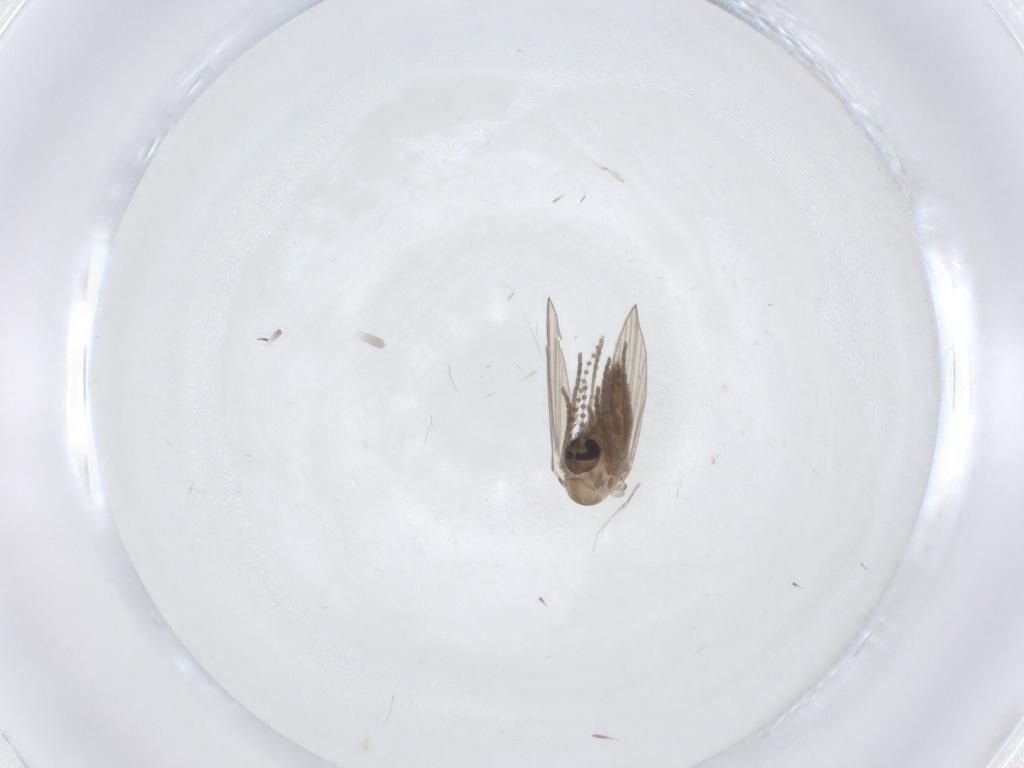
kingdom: Animalia
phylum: Arthropoda
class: Insecta
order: Diptera
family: Psychodidae
